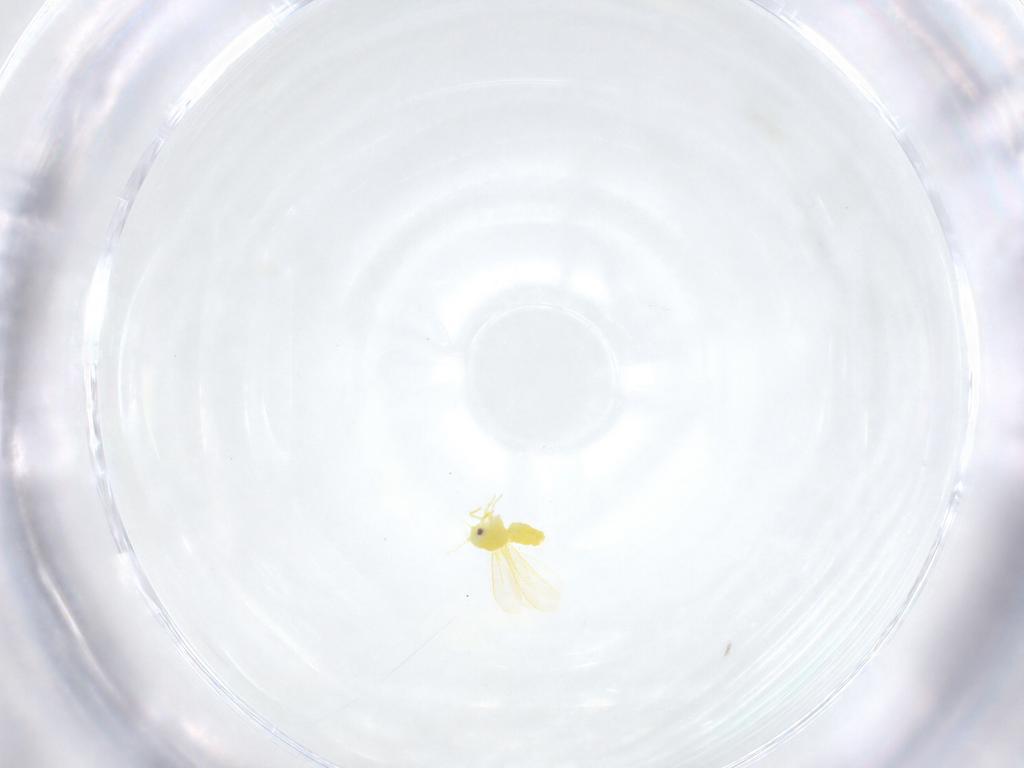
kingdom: Animalia
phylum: Arthropoda
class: Insecta
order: Hemiptera
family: Aleyrodidae
